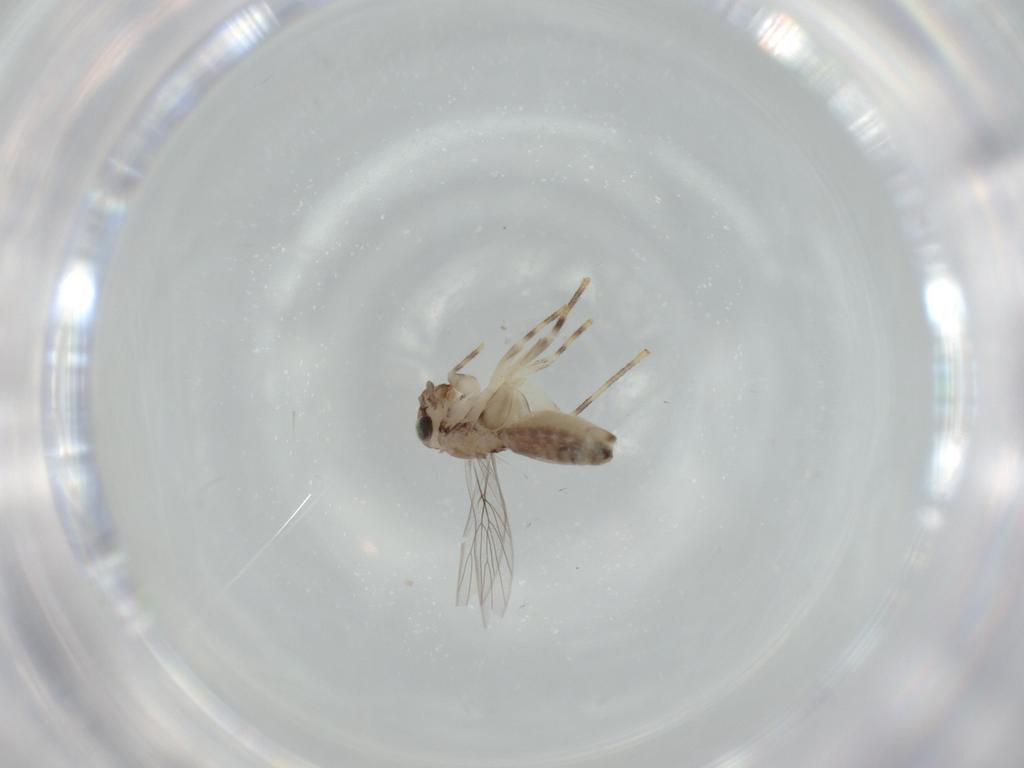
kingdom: Animalia
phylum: Arthropoda
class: Insecta
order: Psocodea
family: Lepidopsocidae
